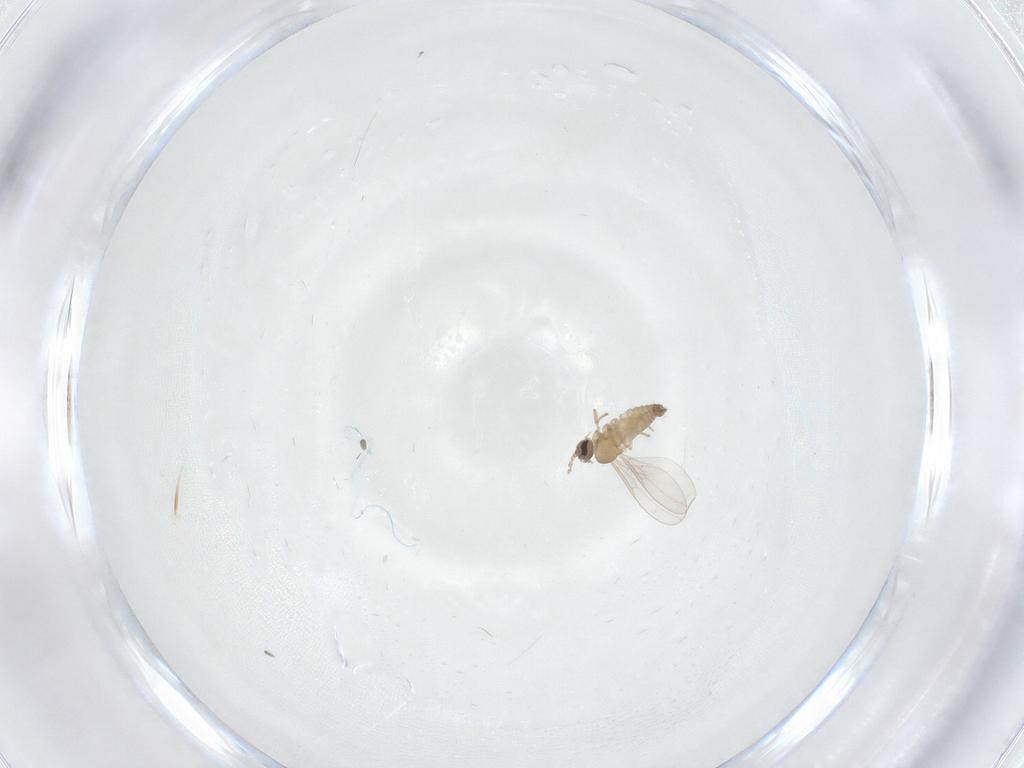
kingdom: Animalia
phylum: Arthropoda
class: Insecta
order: Diptera
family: Cecidomyiidae
